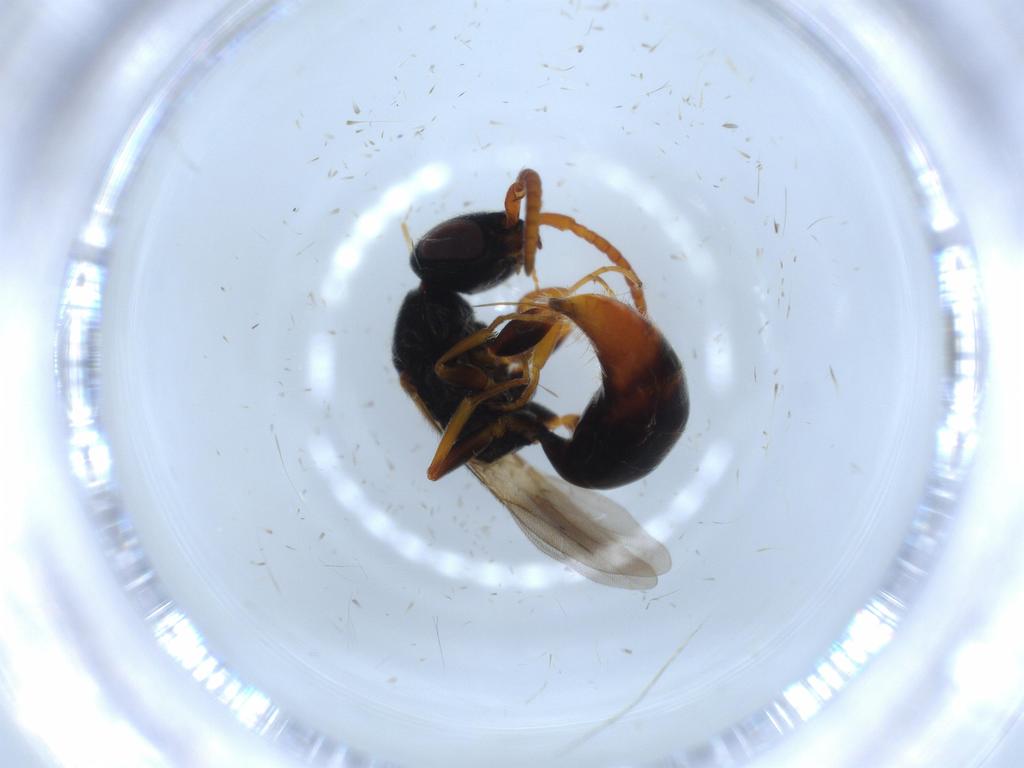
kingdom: Animalia
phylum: Arthropoda
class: Insecta
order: Hymenoptera
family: Bethylidae
